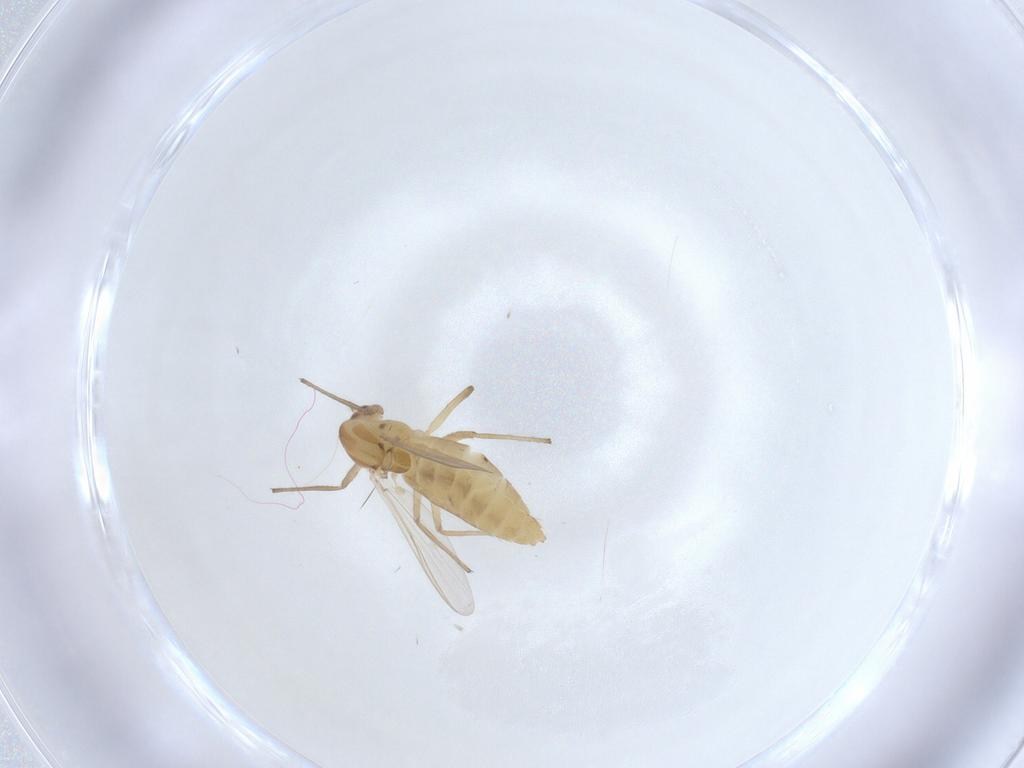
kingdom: Animalia
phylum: Arthropoda
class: Insecta
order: Diptera
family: Chironomidae
